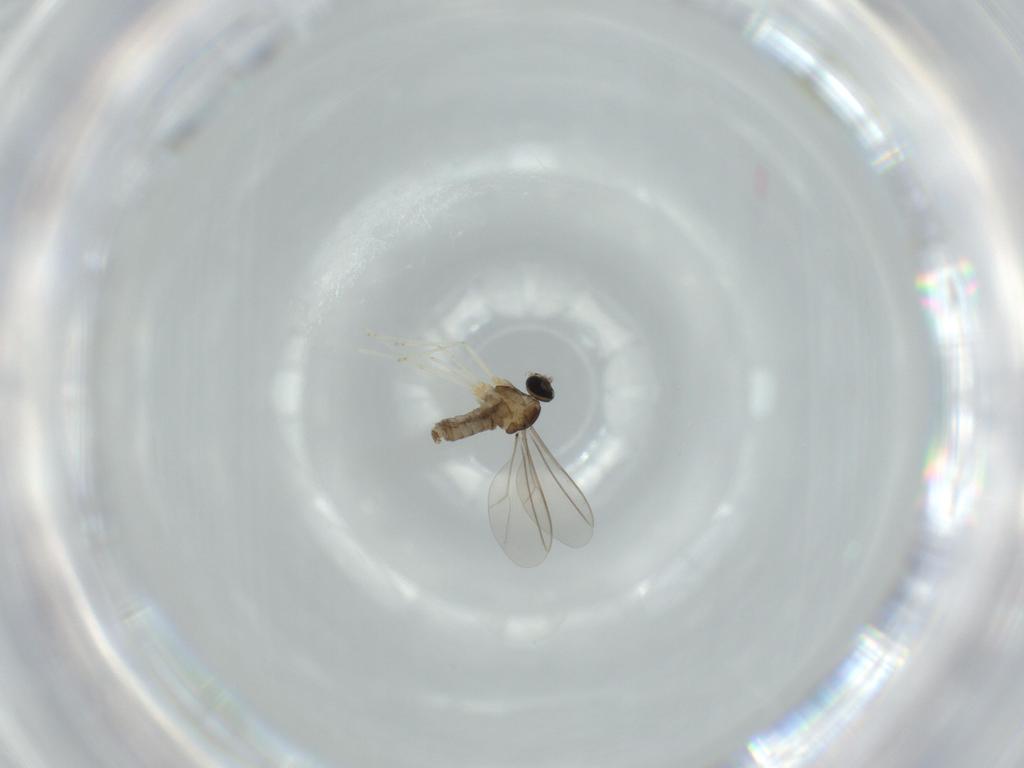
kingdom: Animalia
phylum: Arthropoda
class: Insecta
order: Diptera
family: Cecidomyiidae
